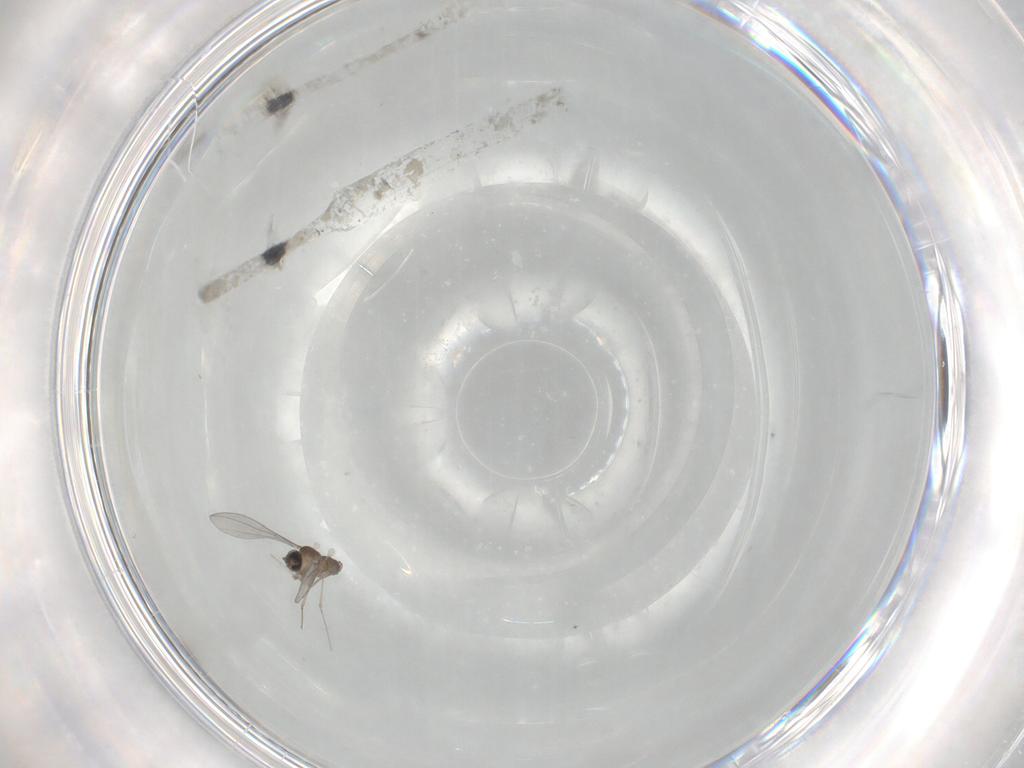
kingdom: Animalia
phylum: Arthropoda
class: Insecta
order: Diptera
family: Cecidomyiidae
